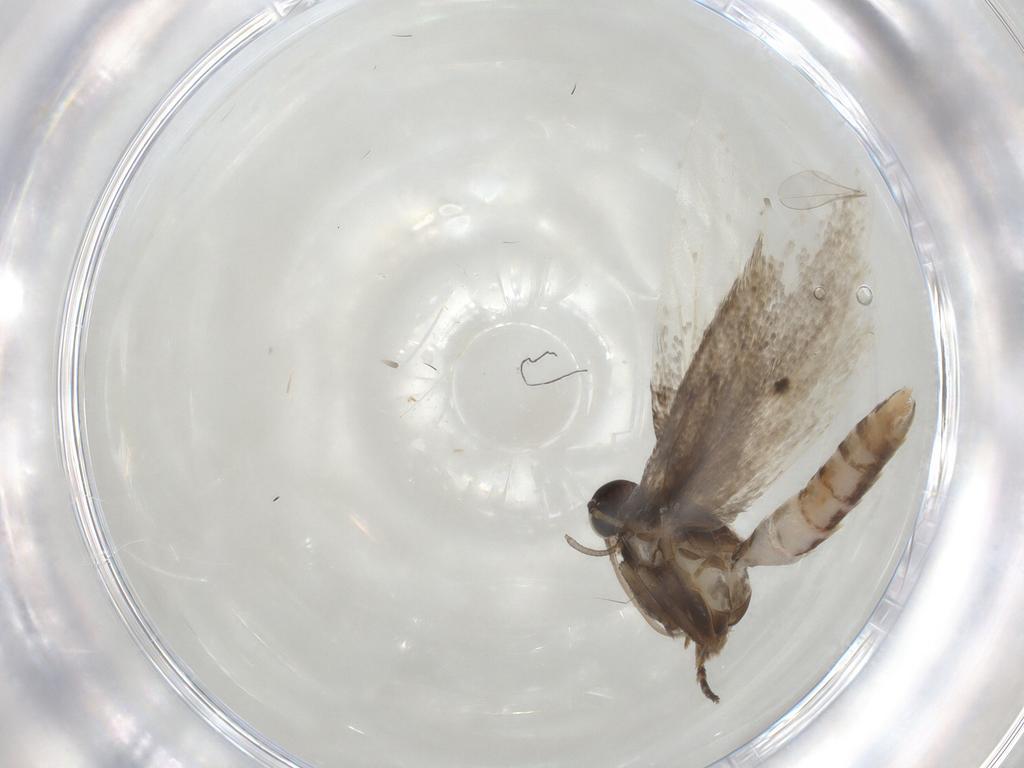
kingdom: Animalia
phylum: Arthropoda
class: Insecta
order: Lepidoptera
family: Gelechiidae
